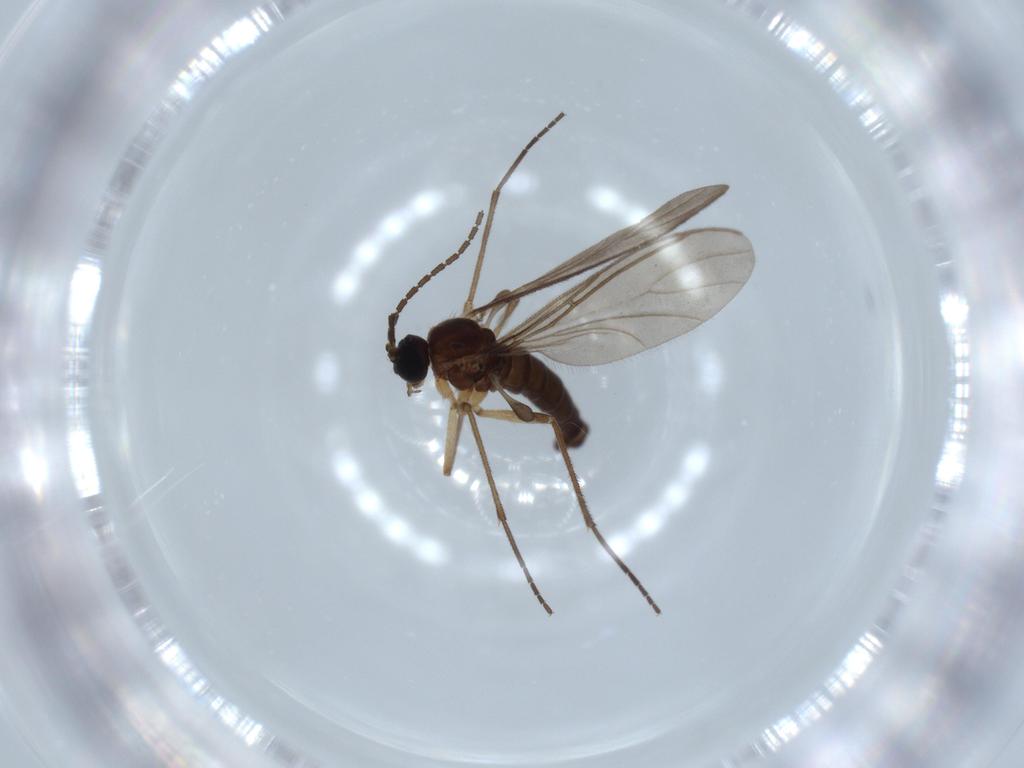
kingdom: Animalia
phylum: Arthropoda
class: Insecta
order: Diptera
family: Sciaridae
